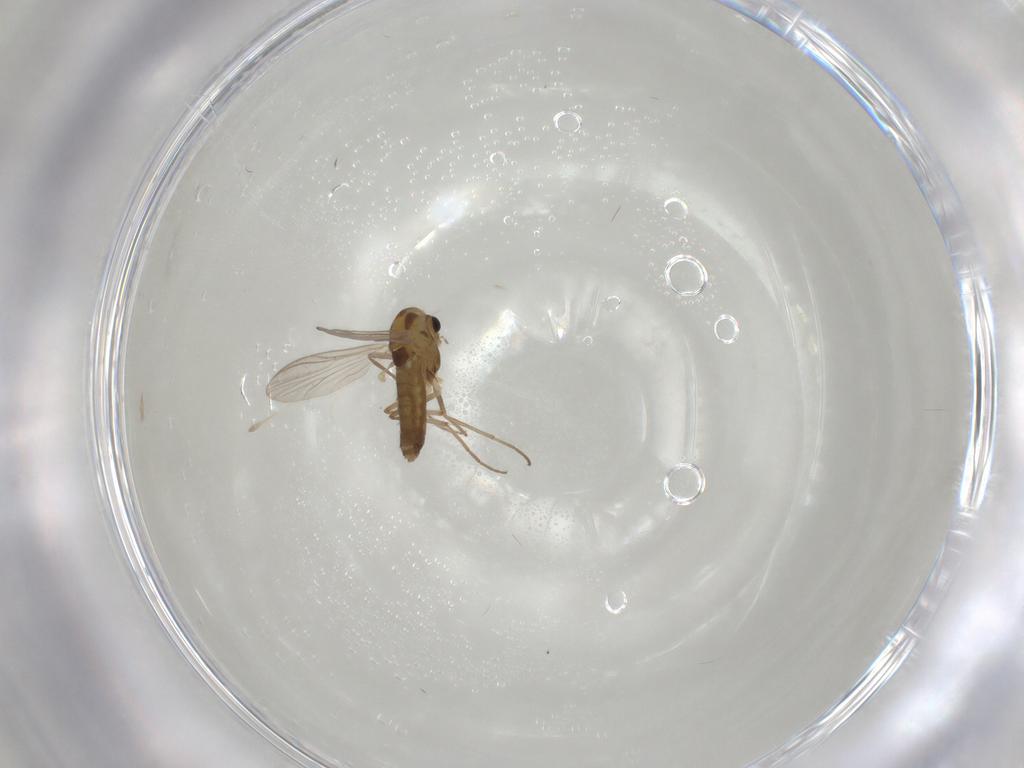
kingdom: Animalia
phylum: Arthropoda
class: Insecta
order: Diptera
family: Chironomidae
